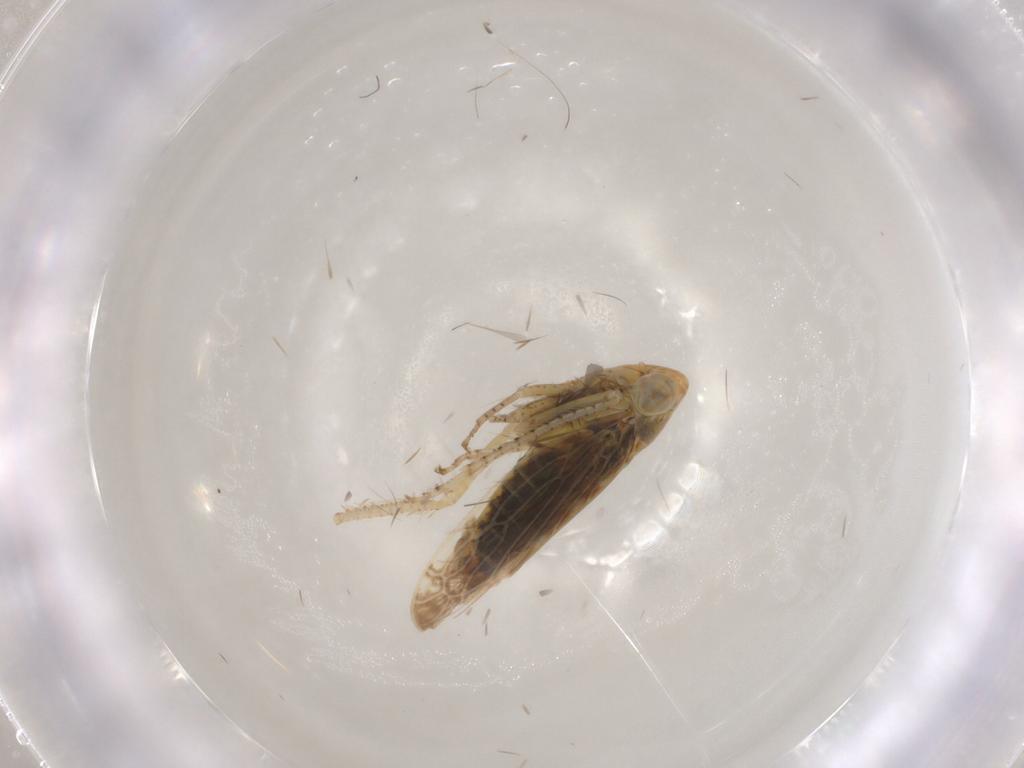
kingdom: Animalia
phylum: Arthropoda
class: Insecta
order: Hemiptera
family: Cicadellidae
